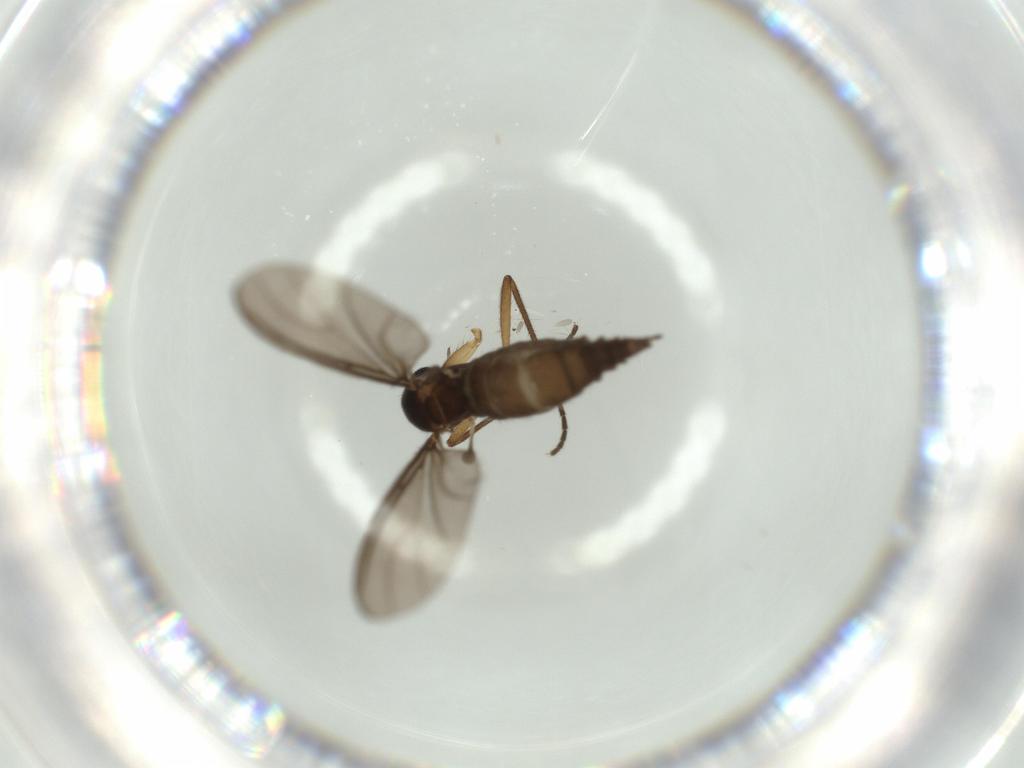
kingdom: Animalia
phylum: Arthropoda
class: Insecta
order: Diptera
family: Sciaridae
